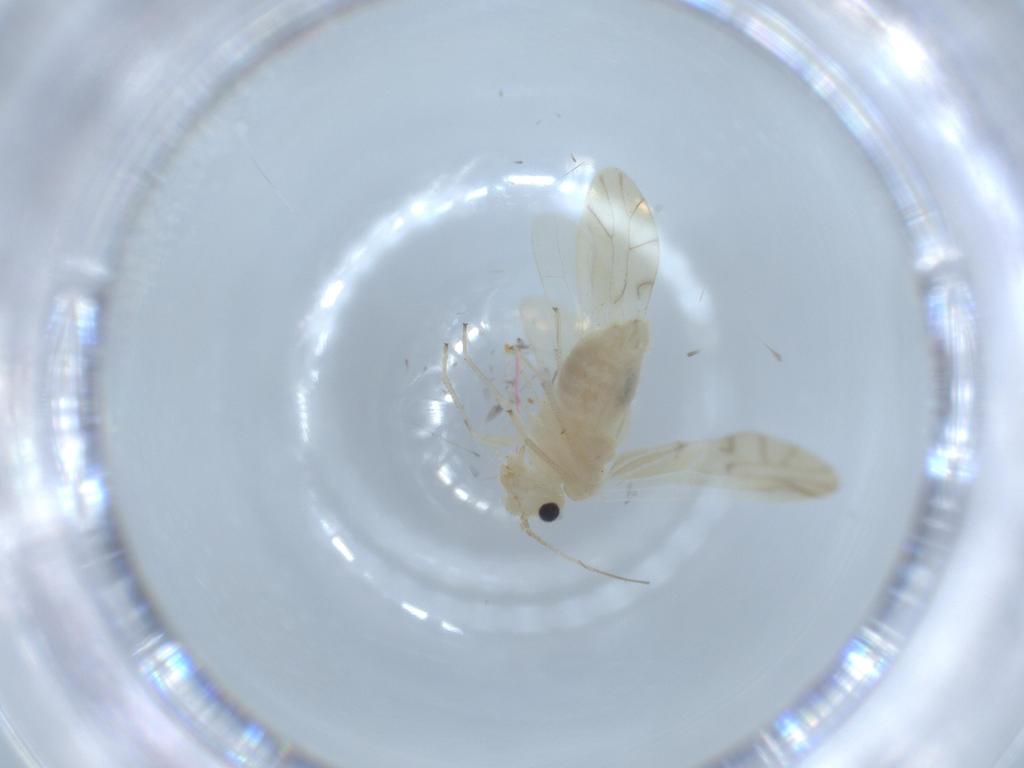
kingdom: Animalia
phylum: Arthropoda
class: Insecta
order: Psocodea
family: Caeciliusidae
